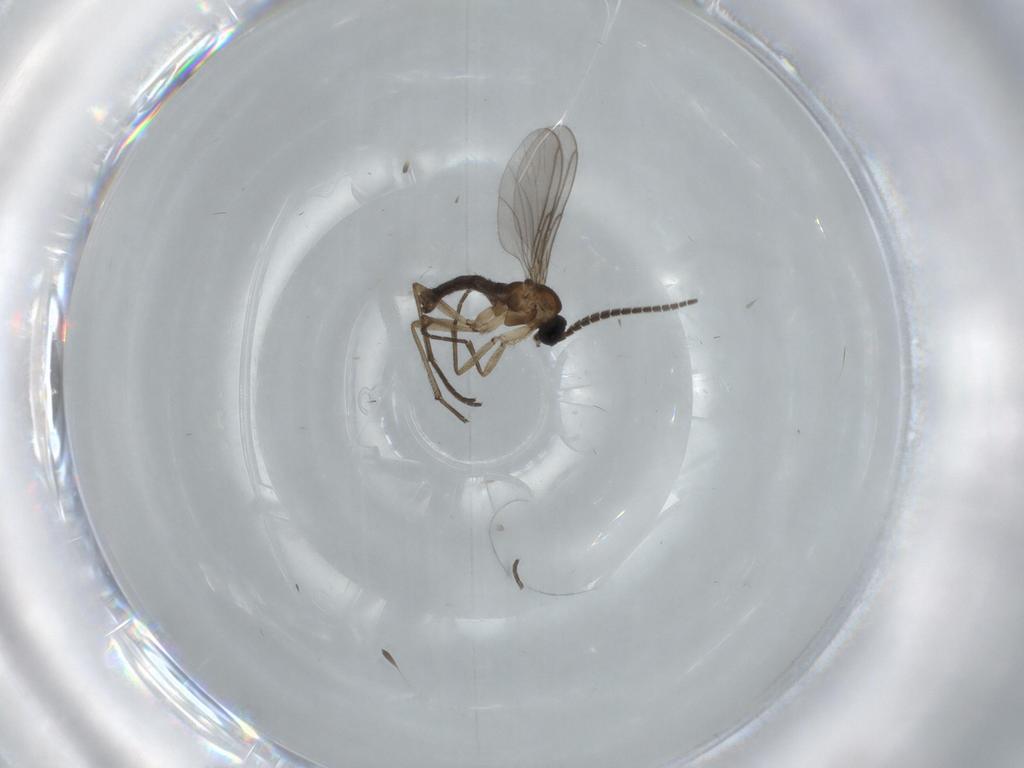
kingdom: Animalia
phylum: Arthropoda
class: Insecta
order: Diptera
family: Sciaridae
